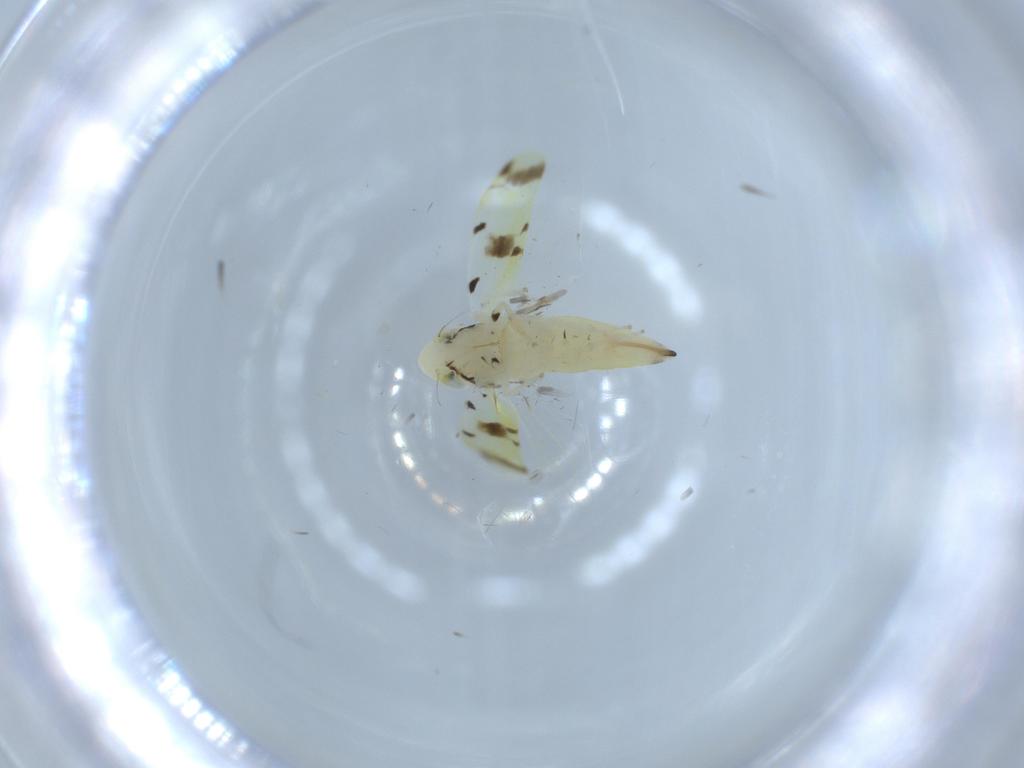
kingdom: Animalia
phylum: Arthropoda
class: Insecta
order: Hemiptera
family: Cicadellidae
